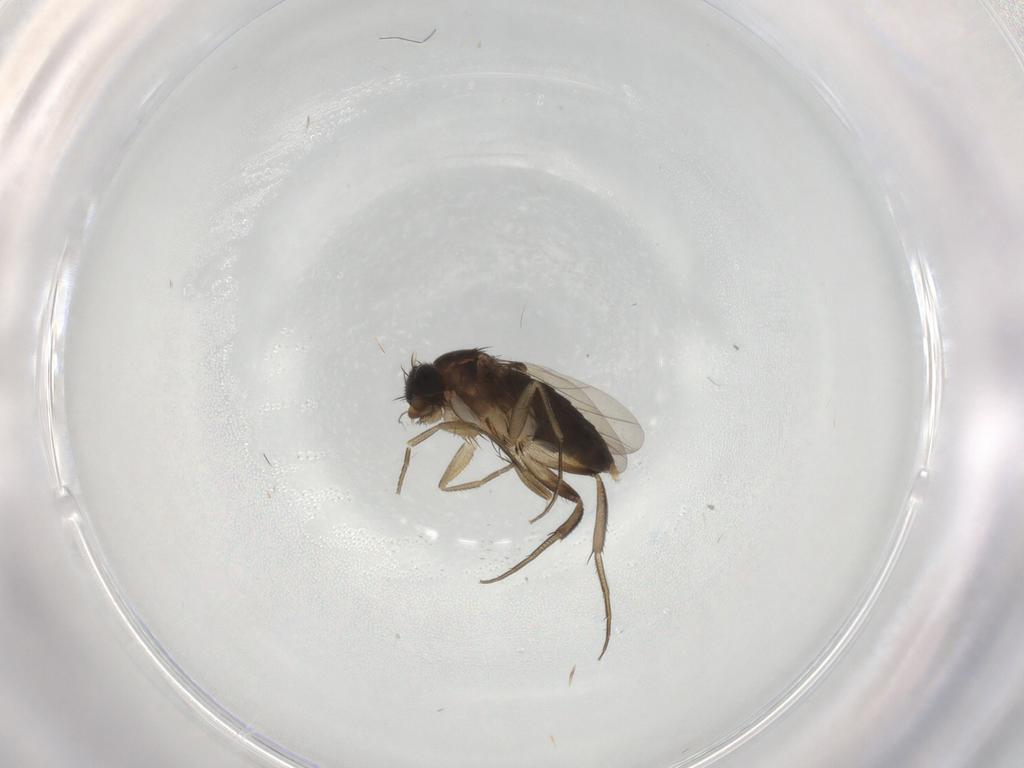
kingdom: Animalia
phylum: Arthropoda
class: Insecta
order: Diptera
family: Phoridae
